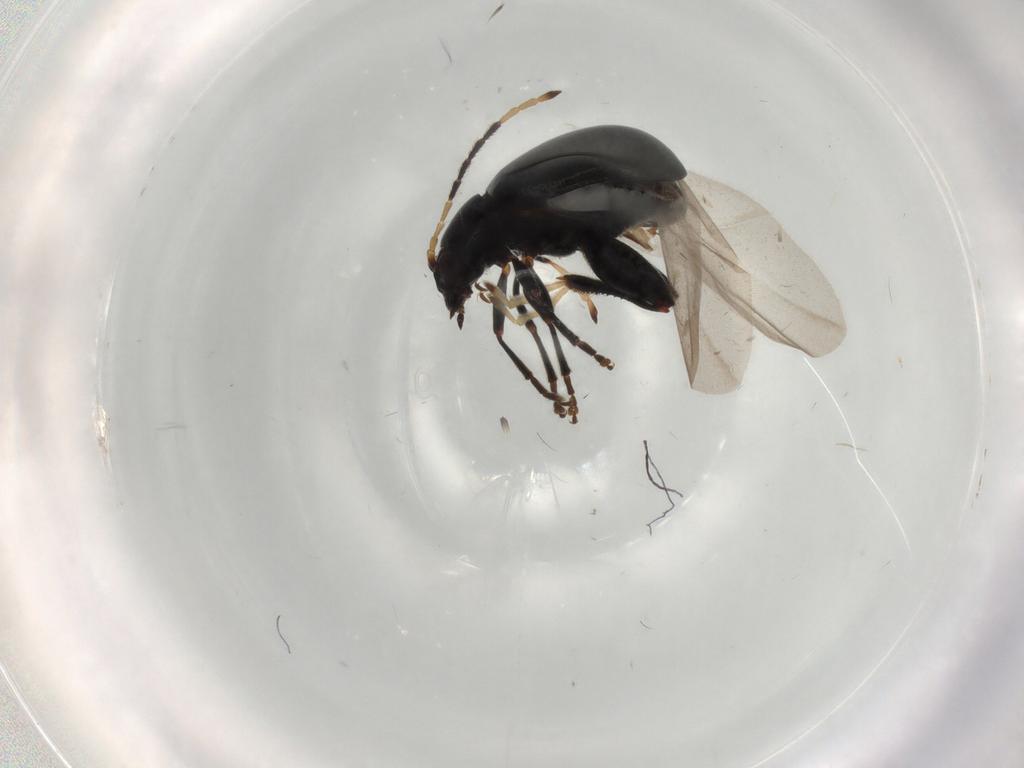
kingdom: Animalia
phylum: Arthropoda
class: Insecta
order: Coleoptera
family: Chrysomelidae
